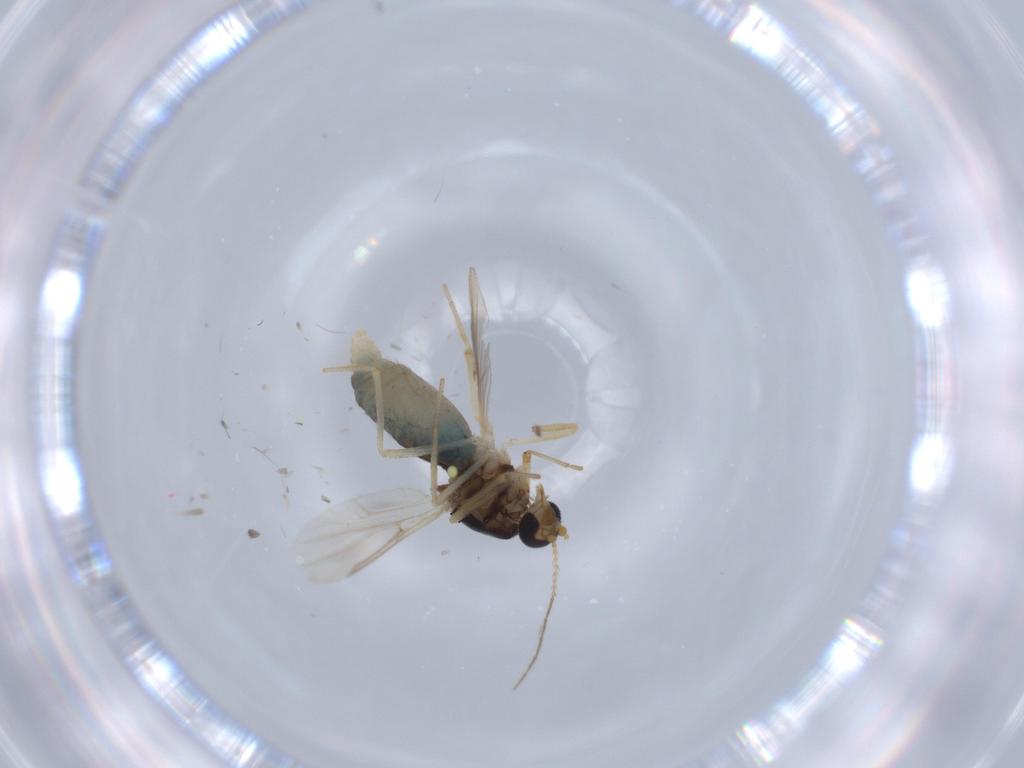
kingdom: Animalia
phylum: Arthropoda
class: Insecta
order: Diptera
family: Ceratopogonidae
